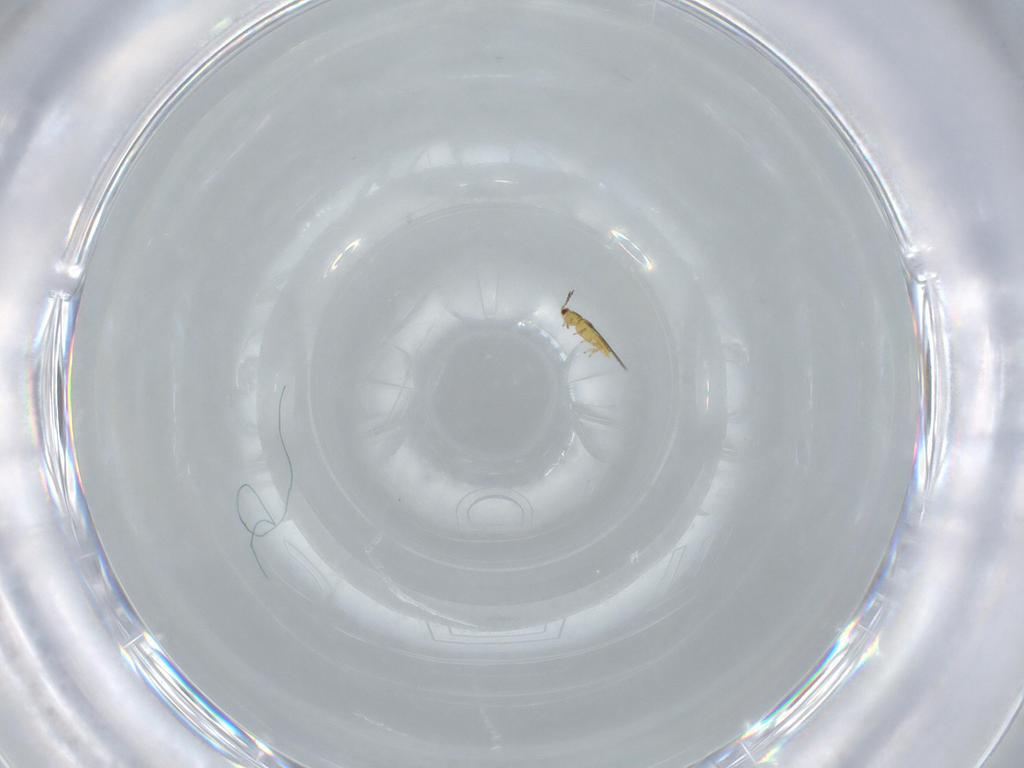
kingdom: Animalia
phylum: Arthropoda
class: Insecta
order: Thysanoptera
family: Thripidae
